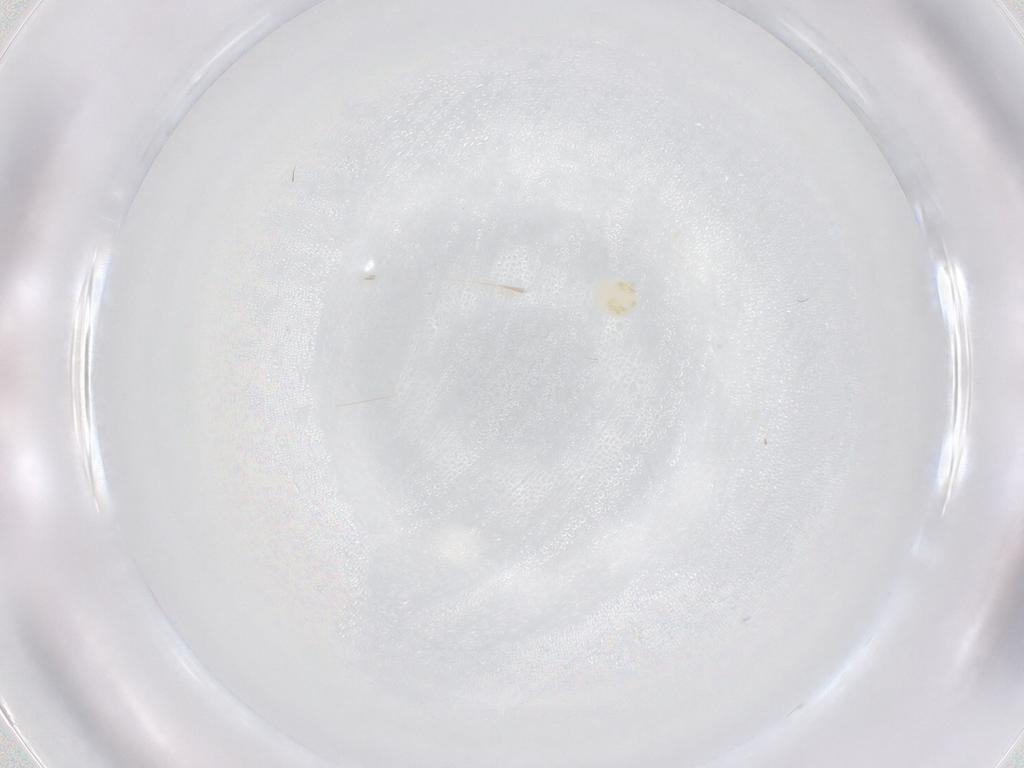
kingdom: Animalia
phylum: Arthropoda
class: Arachnida
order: Trombidiformes
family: Limnesiidae
